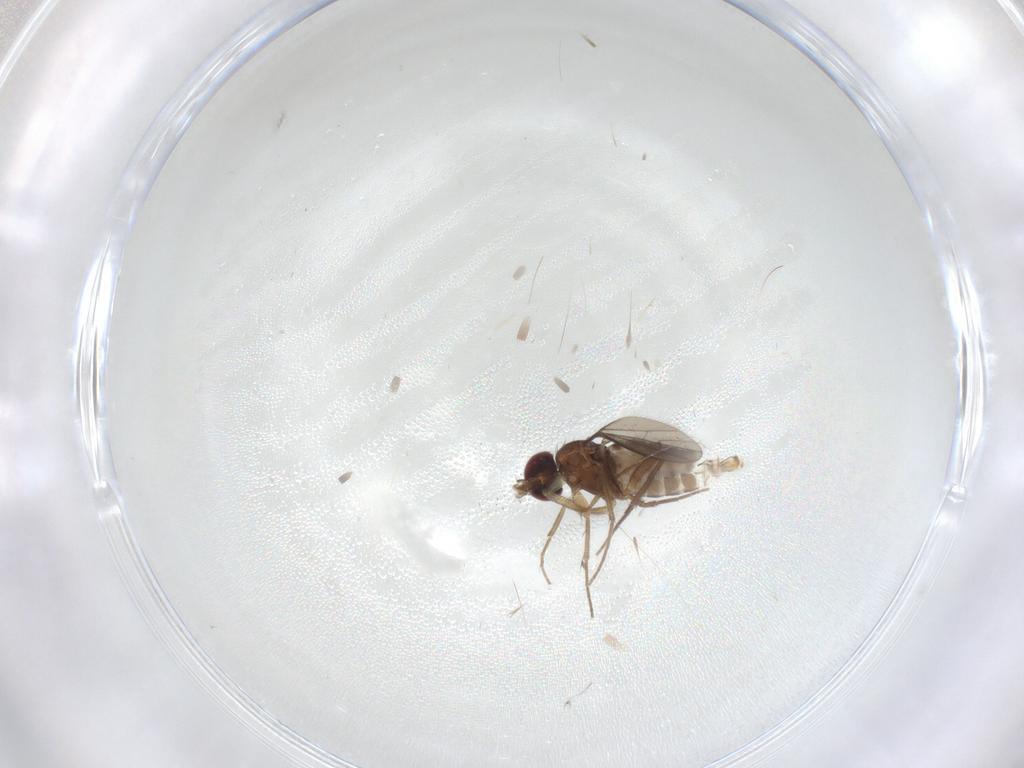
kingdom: Animalia
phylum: Arthropoda
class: Insecta
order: Diptera
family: Dolichopodidae
